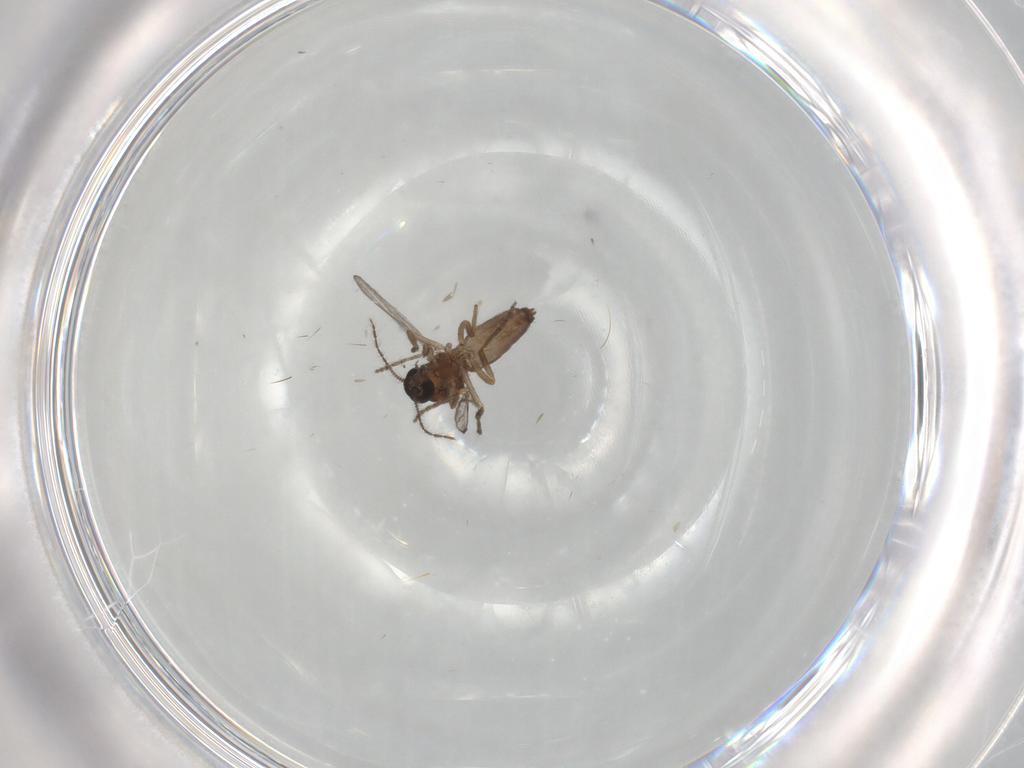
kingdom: Animalia
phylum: Arthropoda
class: Insecta
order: Diptera
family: Ceratopogonidae
